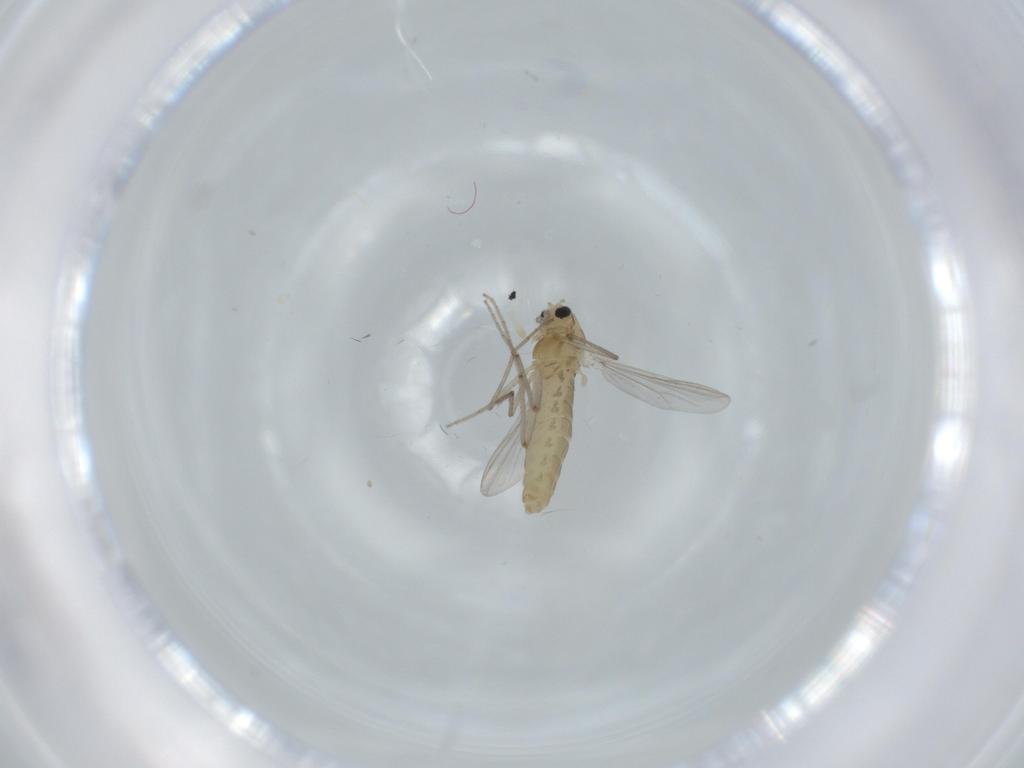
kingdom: Animalia
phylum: Arthropoda
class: Insecta
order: Diptera
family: Chironomidae
